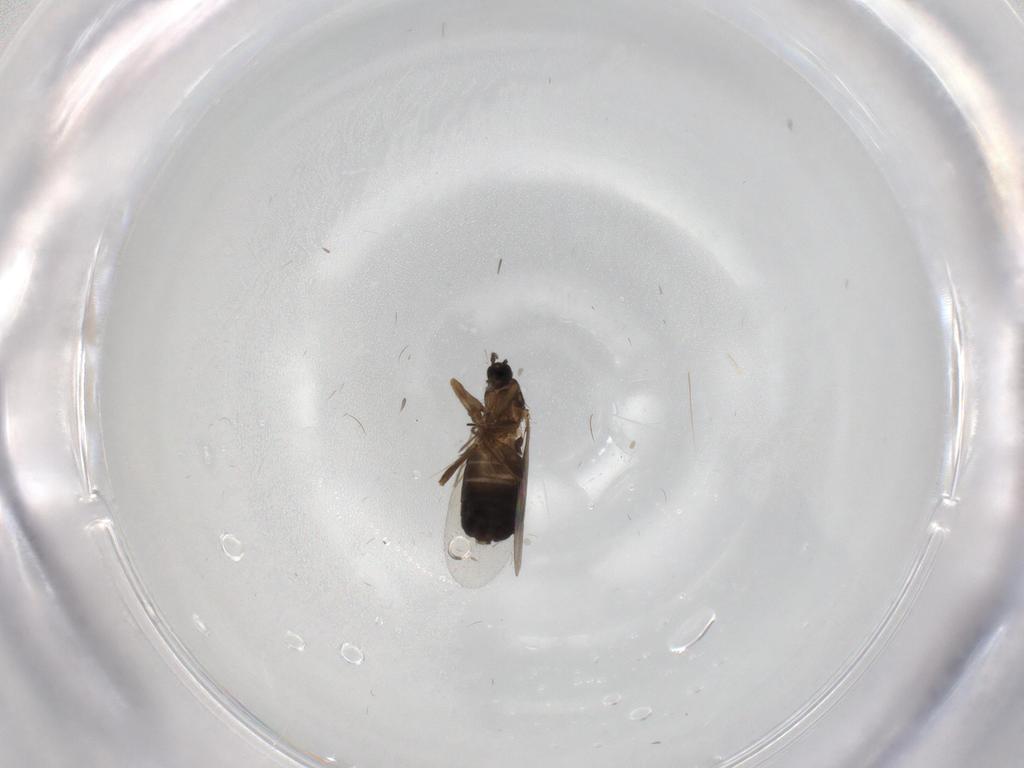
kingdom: Animalia
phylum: Arthropoda
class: Insecta
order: Diptera
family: Scatopsidae
